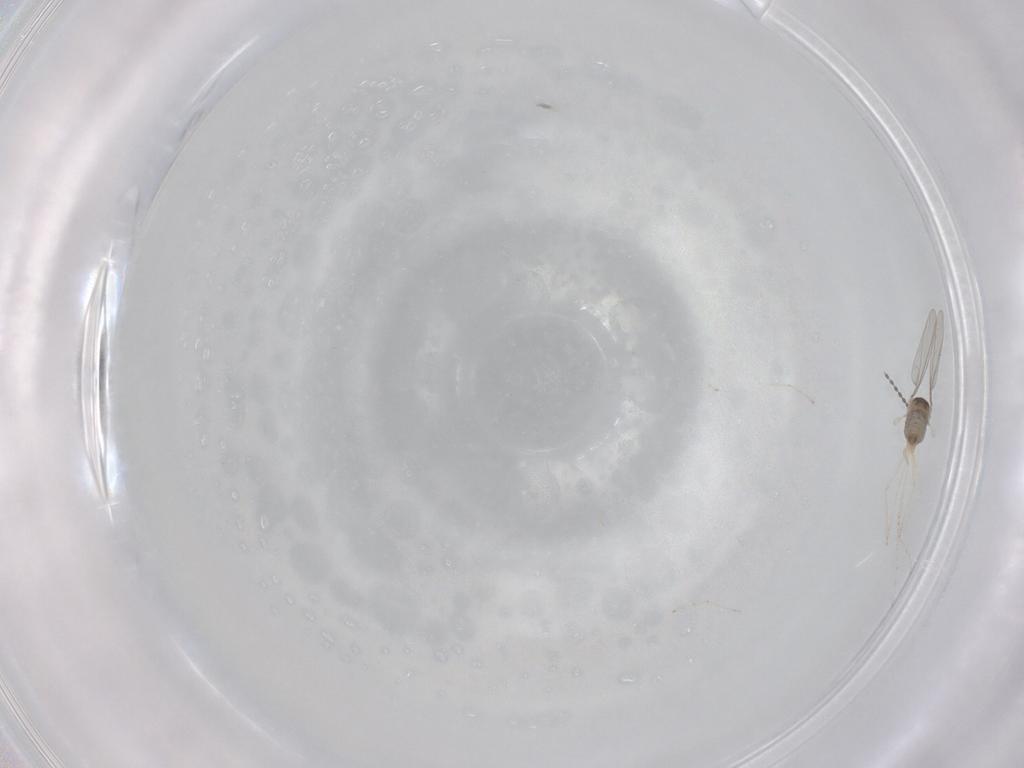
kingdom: Animalia
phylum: Arthropoda
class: Insecta
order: Diptera
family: Cecidomyiidae
